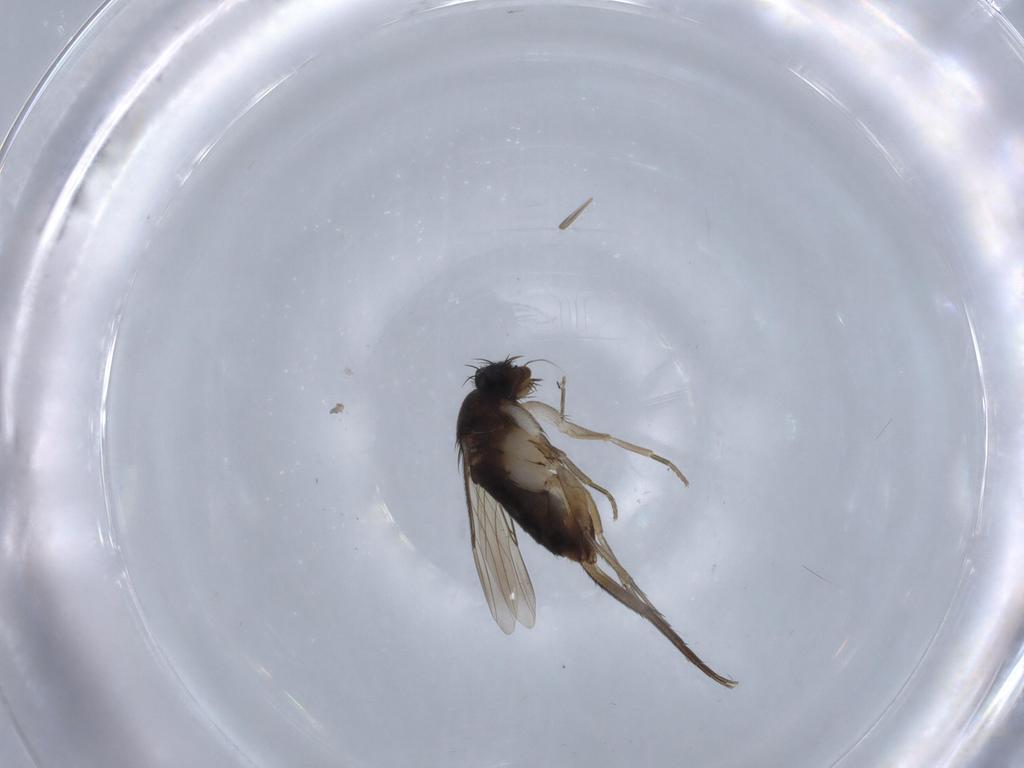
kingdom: Animalia
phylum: Arthropoda
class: Insecta
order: Diptera
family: Phoridae
